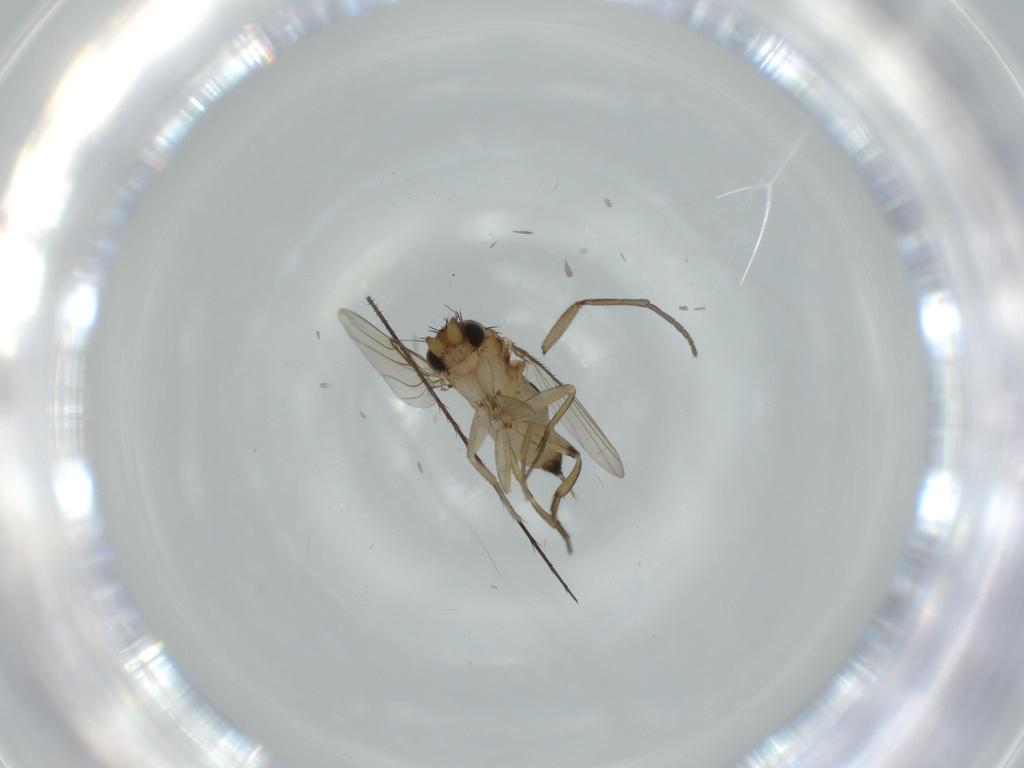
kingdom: Animalia
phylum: Arthropoda
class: Insecta
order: Diptera
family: Sciaridae
